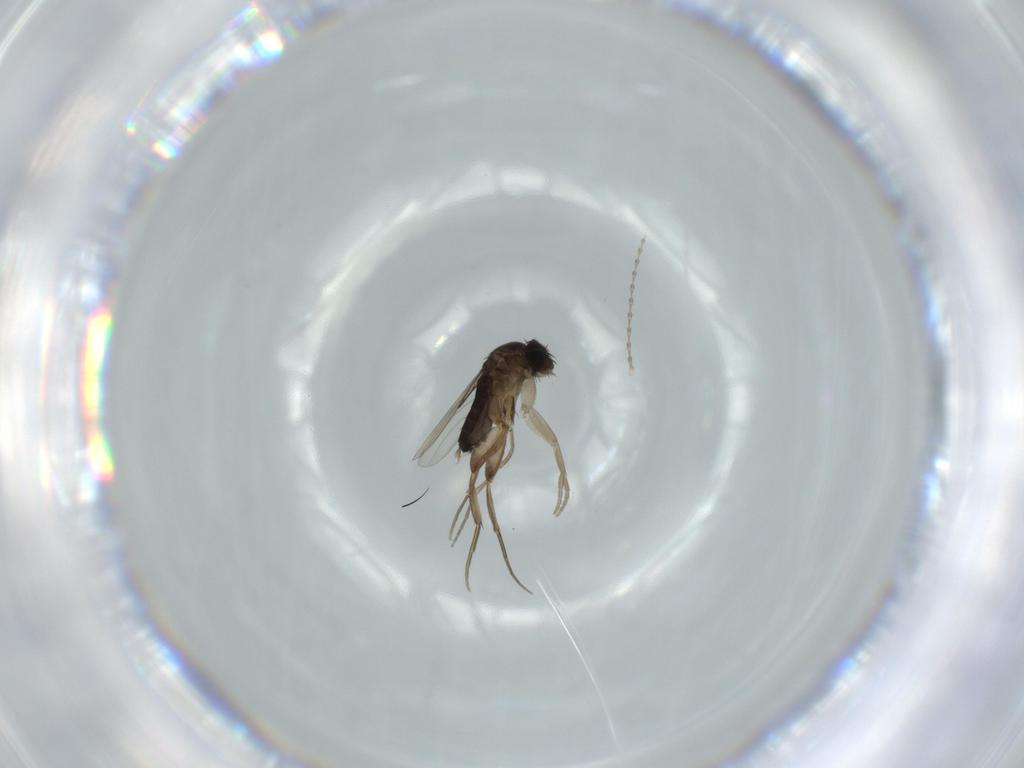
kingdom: Animalia
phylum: Arthropoda
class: Insecta
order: Diptera
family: Cecidomyiidae
